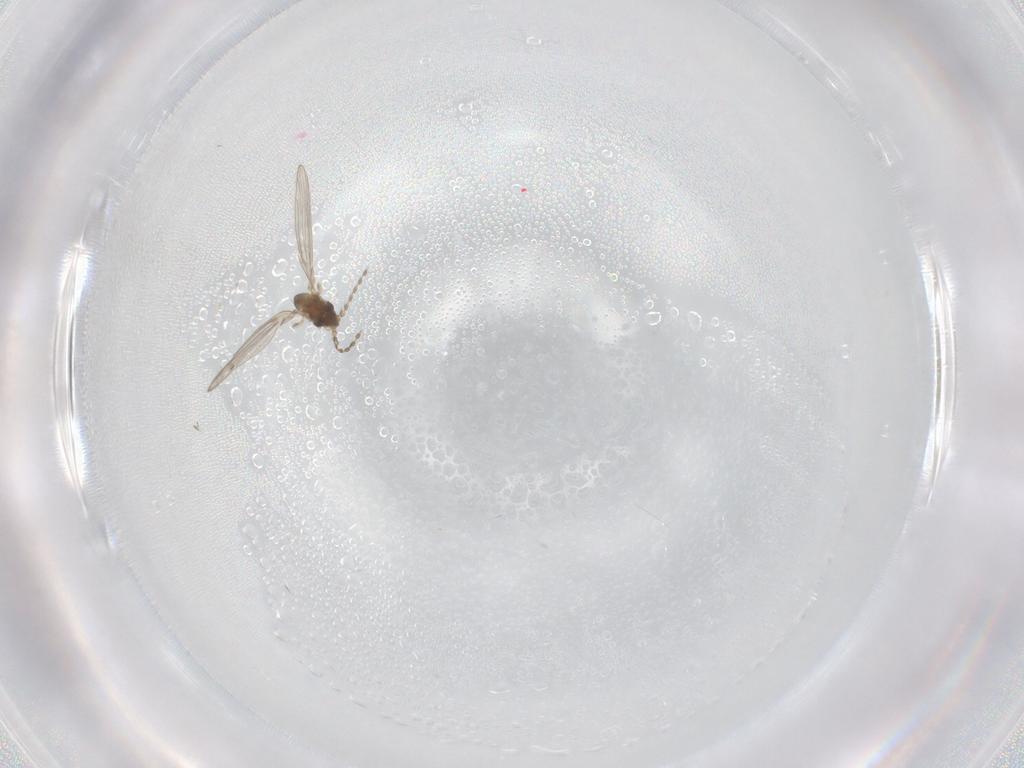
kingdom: Animalia
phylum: Arthropoda
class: Insecta
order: Diptera
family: Psychodidae
